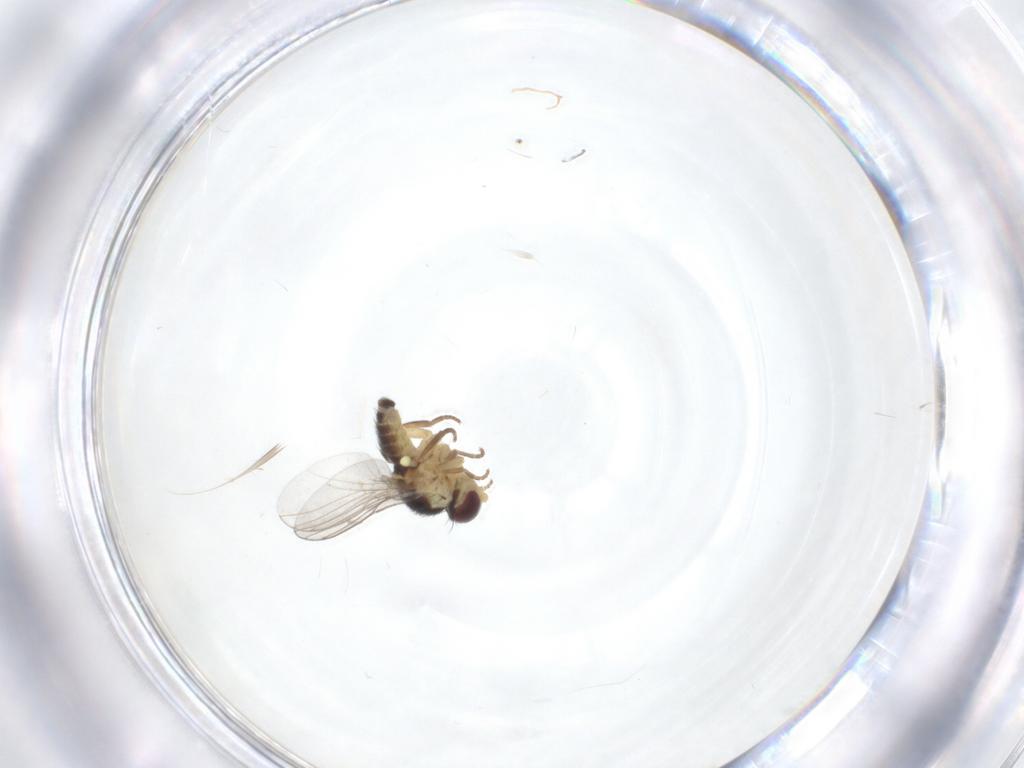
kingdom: Animalia
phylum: Arthropoda
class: Insecta
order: Diptera
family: Agromyzidae
